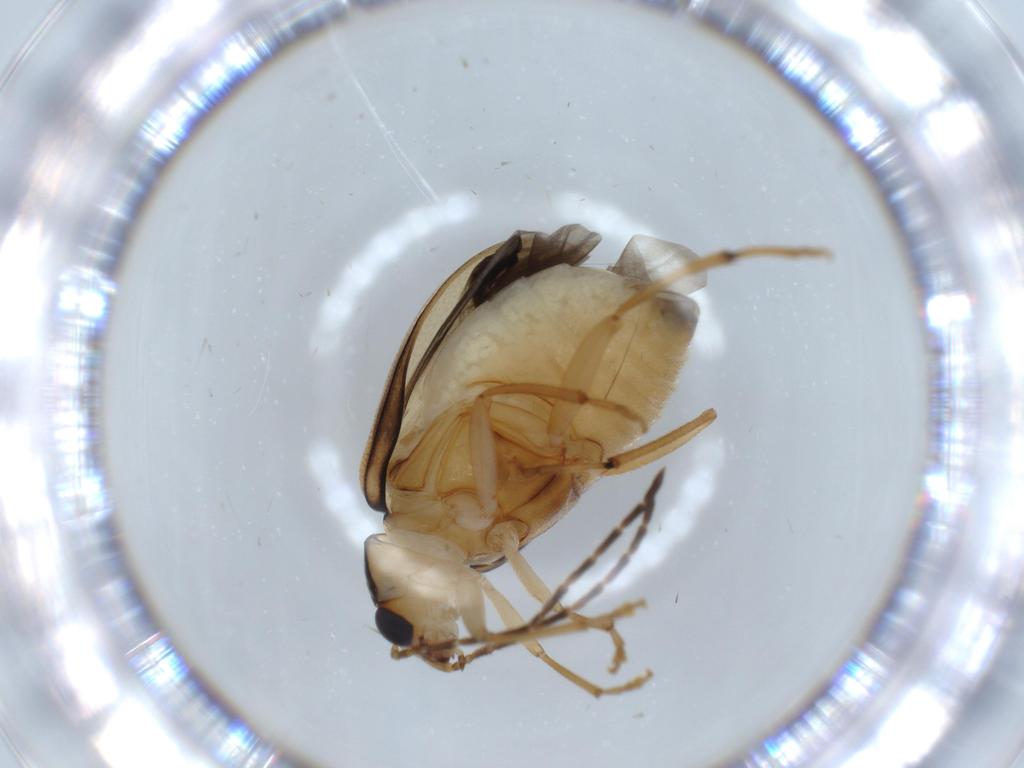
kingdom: Animalia
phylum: Arthropoda
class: Insecta
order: Coleoptera
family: Chrysomelidae
